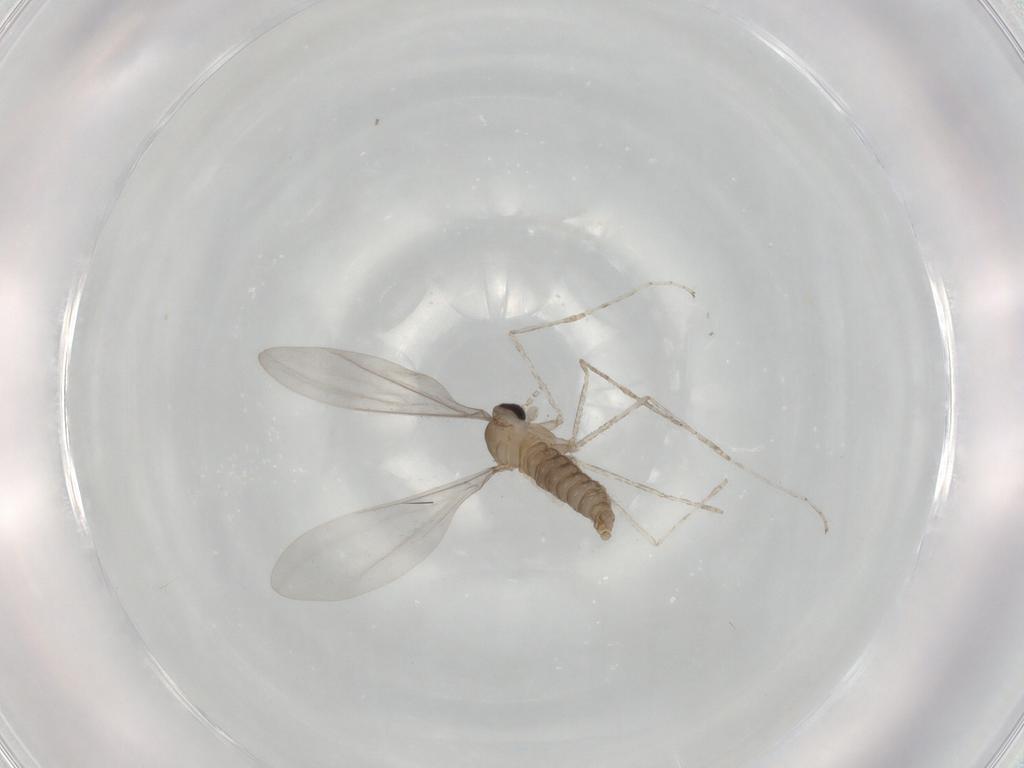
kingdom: Animalia
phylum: Arthropoda
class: Insecta
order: Diptera
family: Cecidomyiidae
